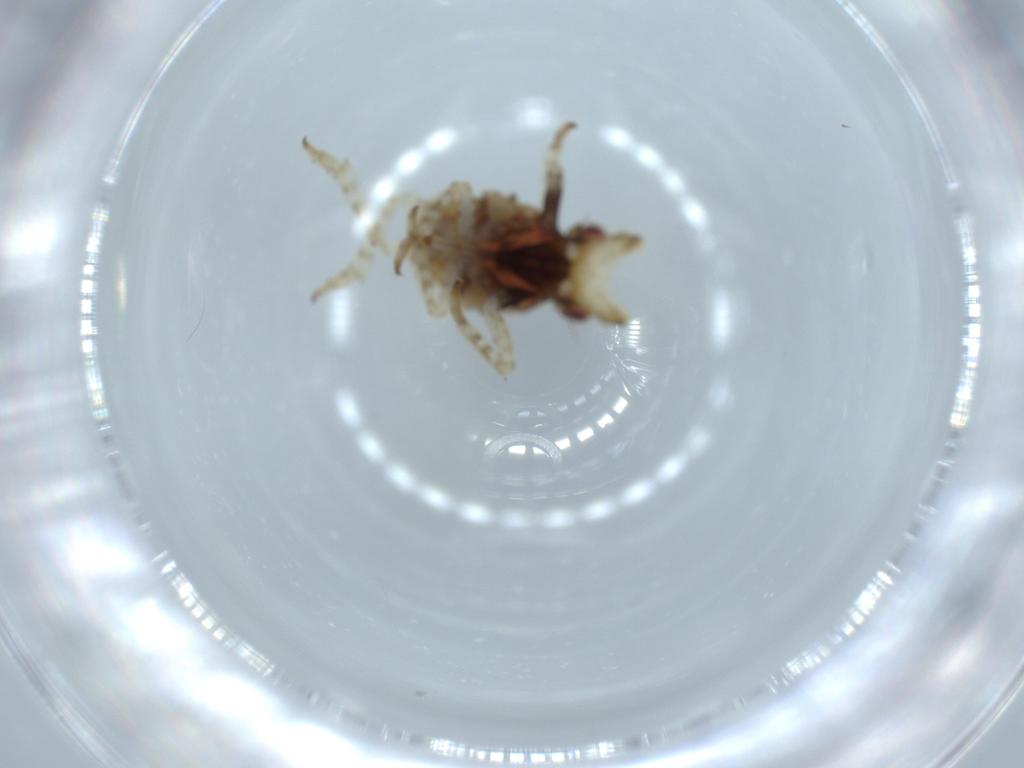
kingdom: Animalia
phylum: Arthropoda
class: Insecta
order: Hemiptera
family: Fulgoridae
